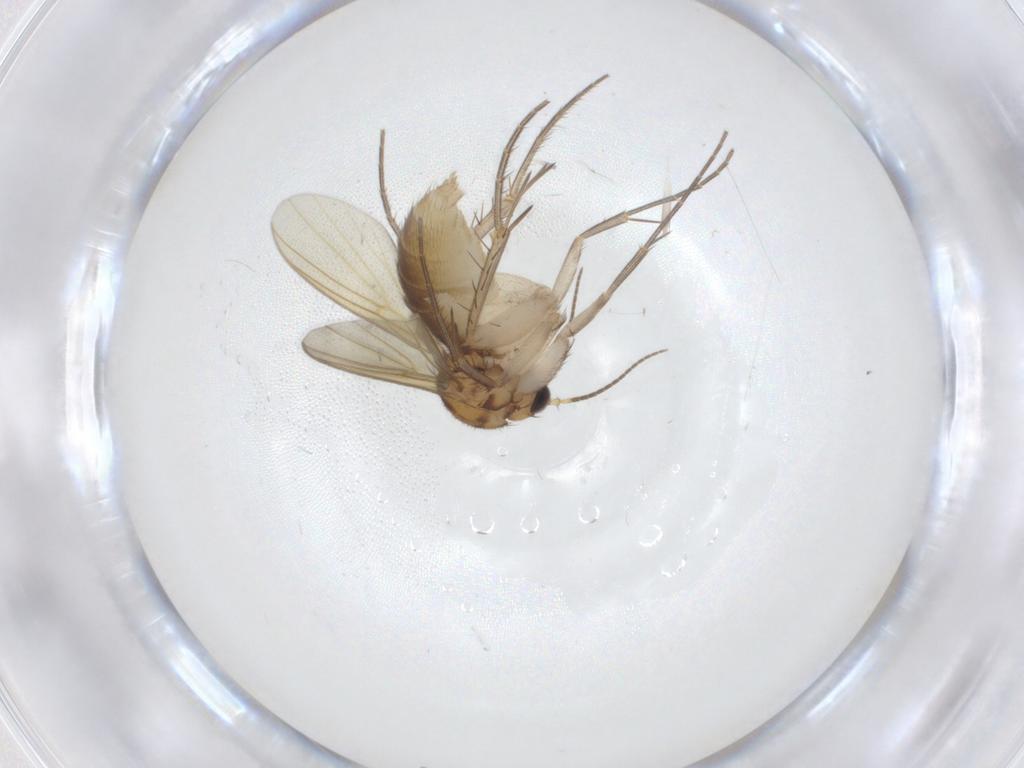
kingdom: Animalia
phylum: Arthropoda
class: Insecta
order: Diptera
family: Mycetophilidae
